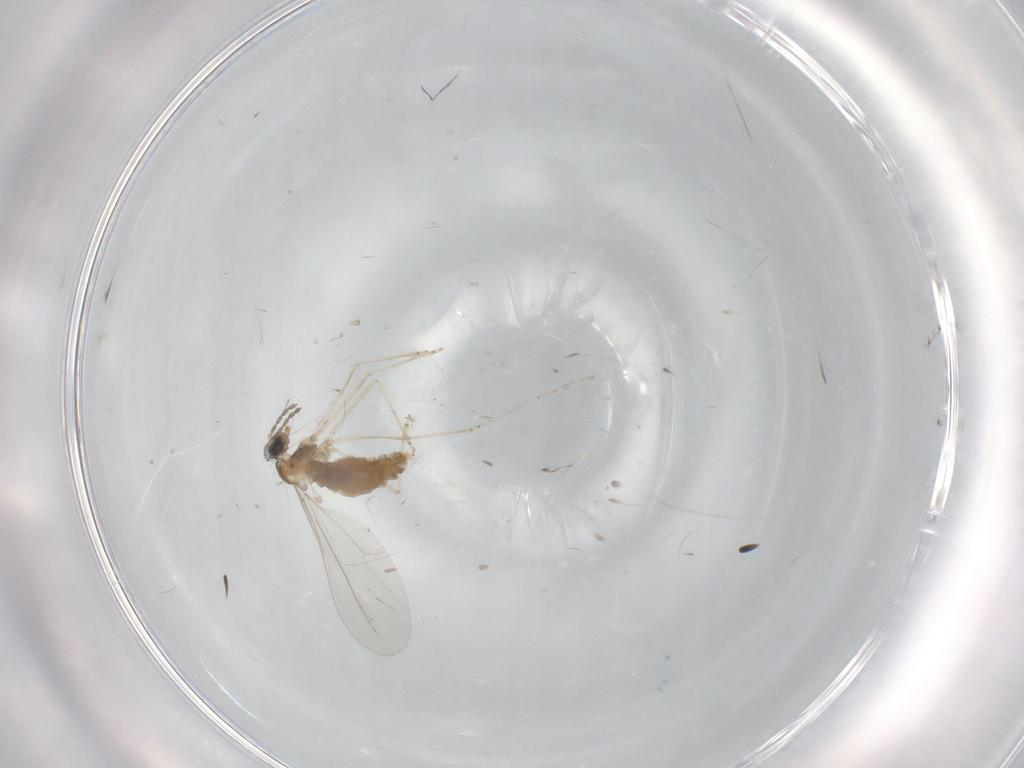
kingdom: Animalia
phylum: Arthropoda
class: Insecta
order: Diptera
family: Cecidomyiidae
